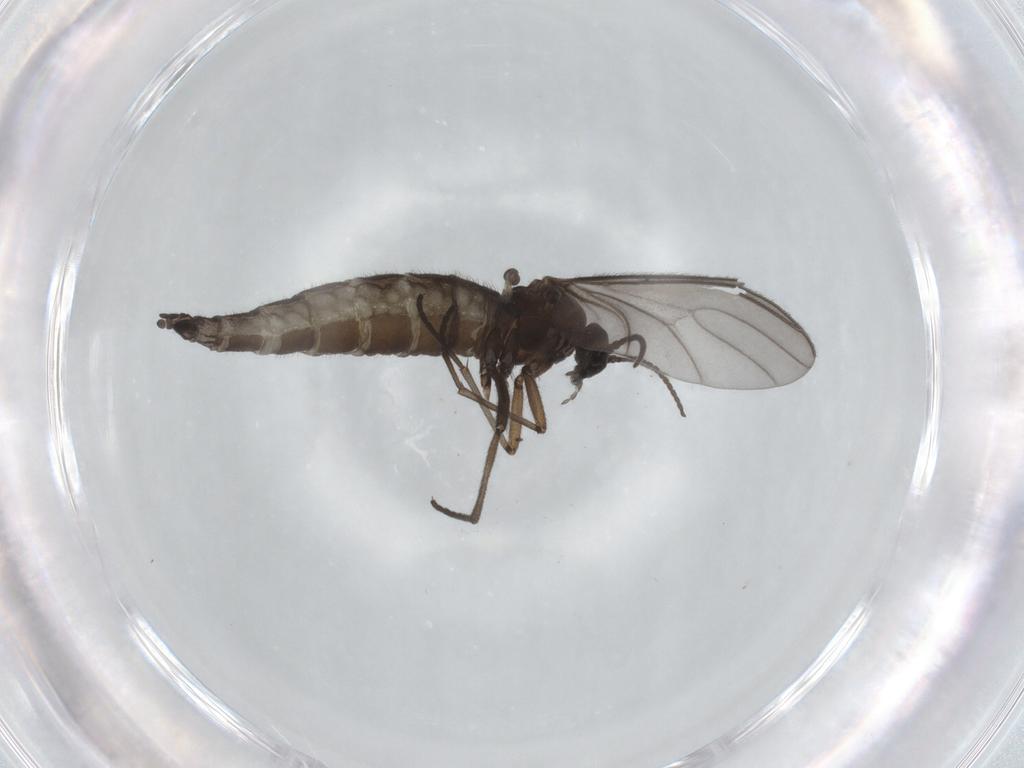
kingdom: Animalia
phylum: Arthropoda
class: Insecta
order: Diptera
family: Sciaridae
